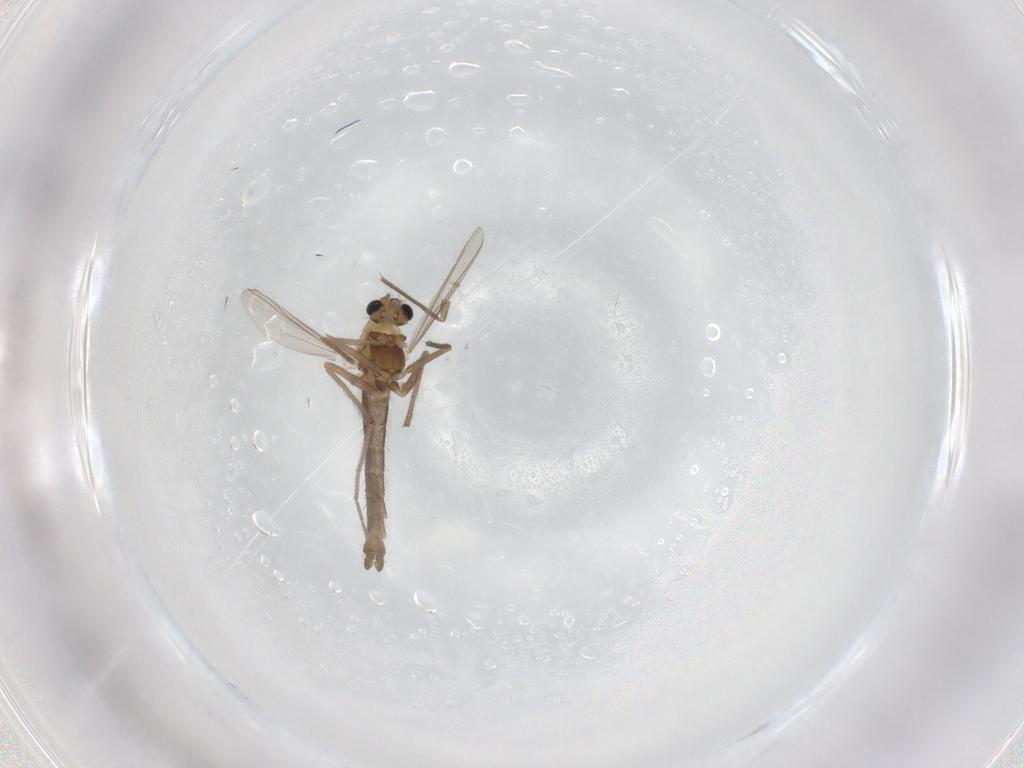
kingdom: Animalia
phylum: Arthropoda
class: Insecta
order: Diptera
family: Chironomidae
